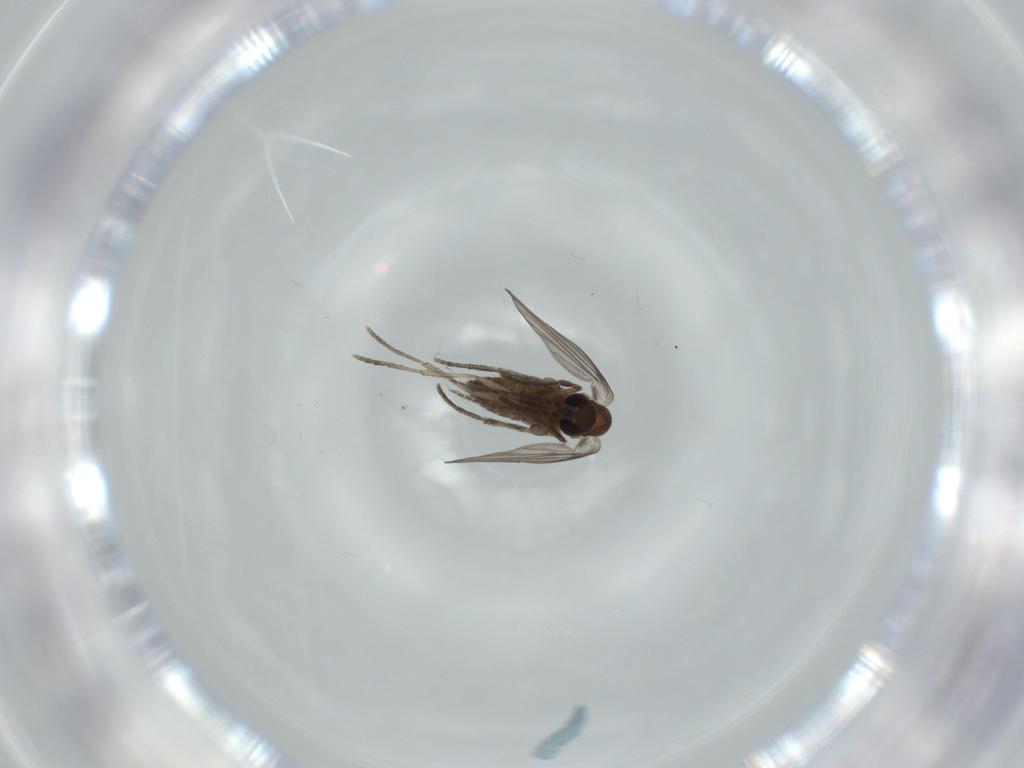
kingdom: Animalia
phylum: Arthropoda
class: Insecta
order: Diptera
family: Psychodidae
